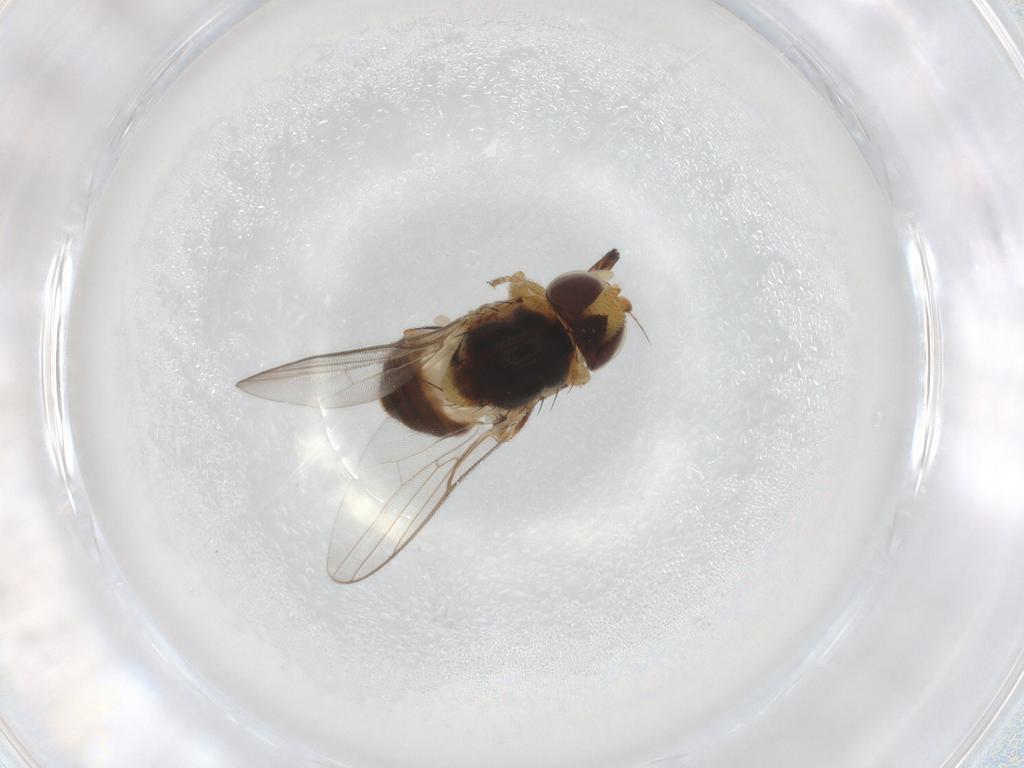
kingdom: Animalia
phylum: Arthropoda
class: Insecta
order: Diptera
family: Chloropidae
